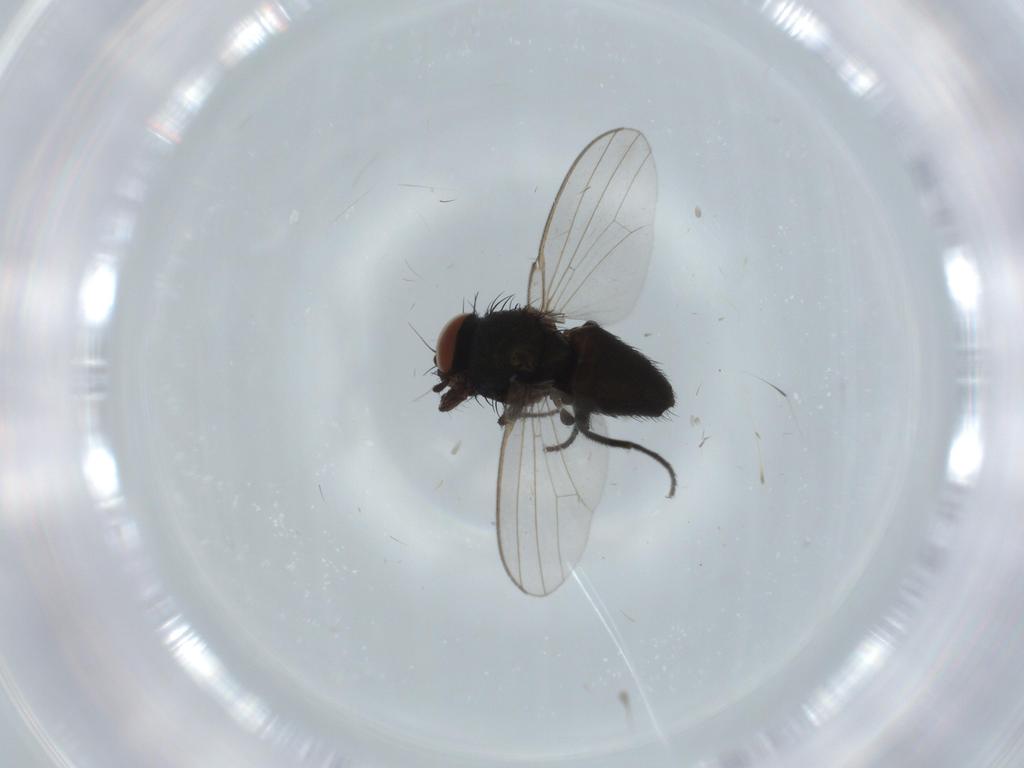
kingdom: Animalia
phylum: Arthropoda
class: Insecta
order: Diptera
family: Milichiidae
